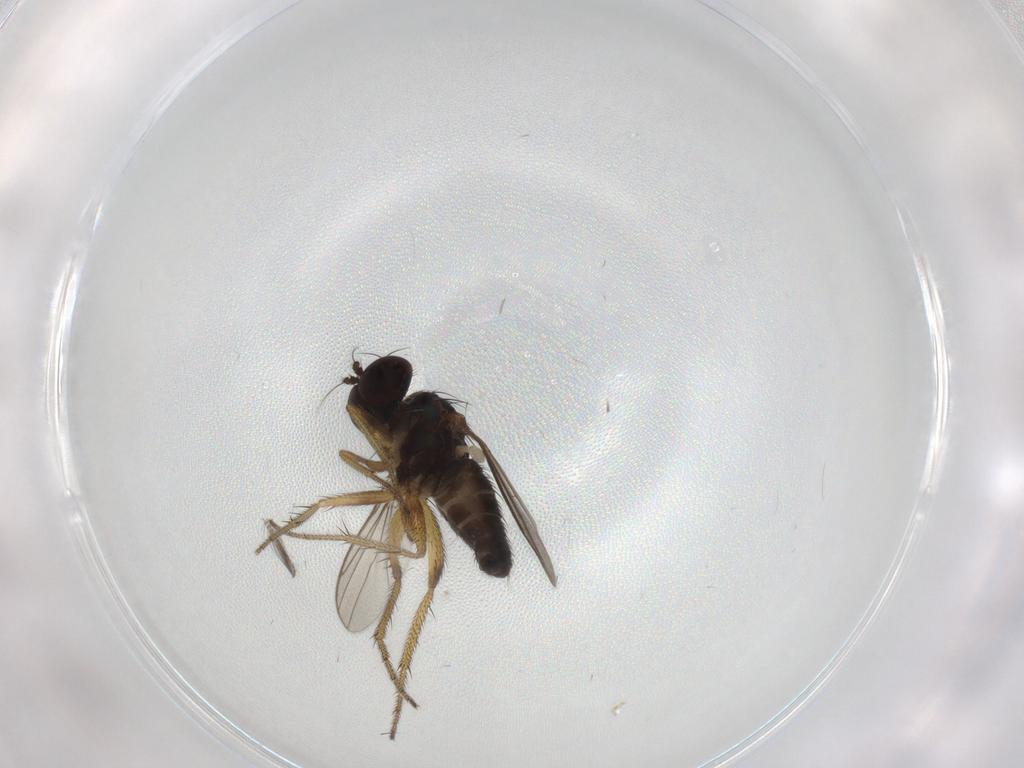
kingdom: Animalia
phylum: Arthropoda
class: Insecta
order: Diptera
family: Ceratopogonidae
